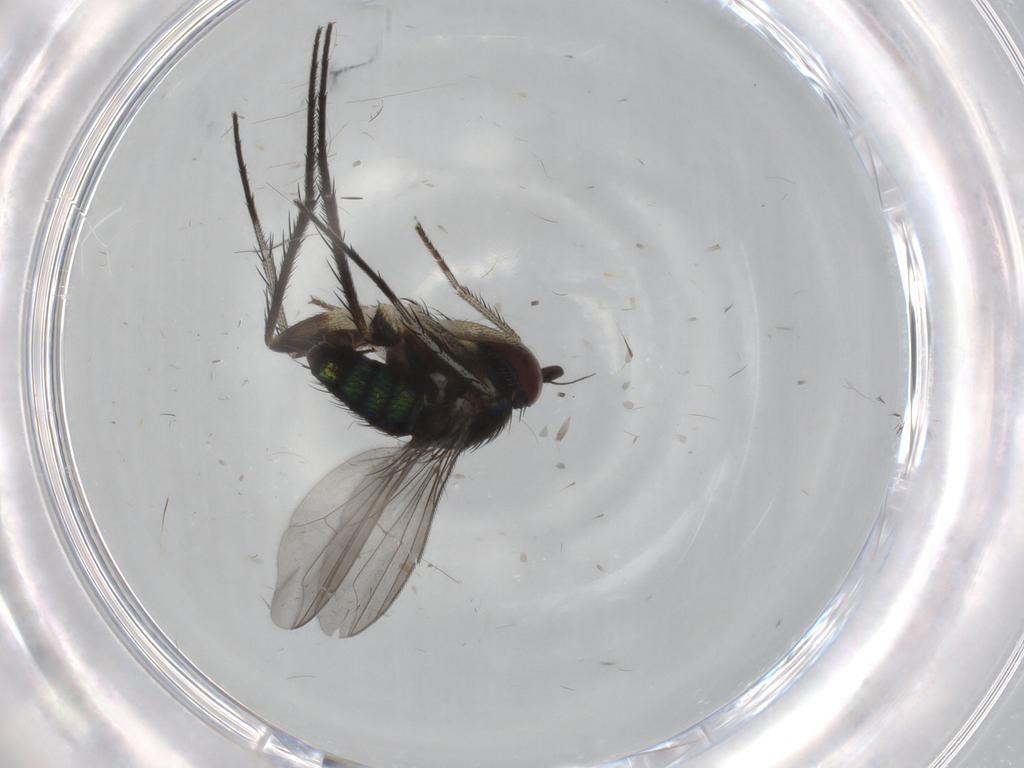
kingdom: Animalia
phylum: Arthropoda
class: Insecta
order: Diptera
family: Dolichopodidae
